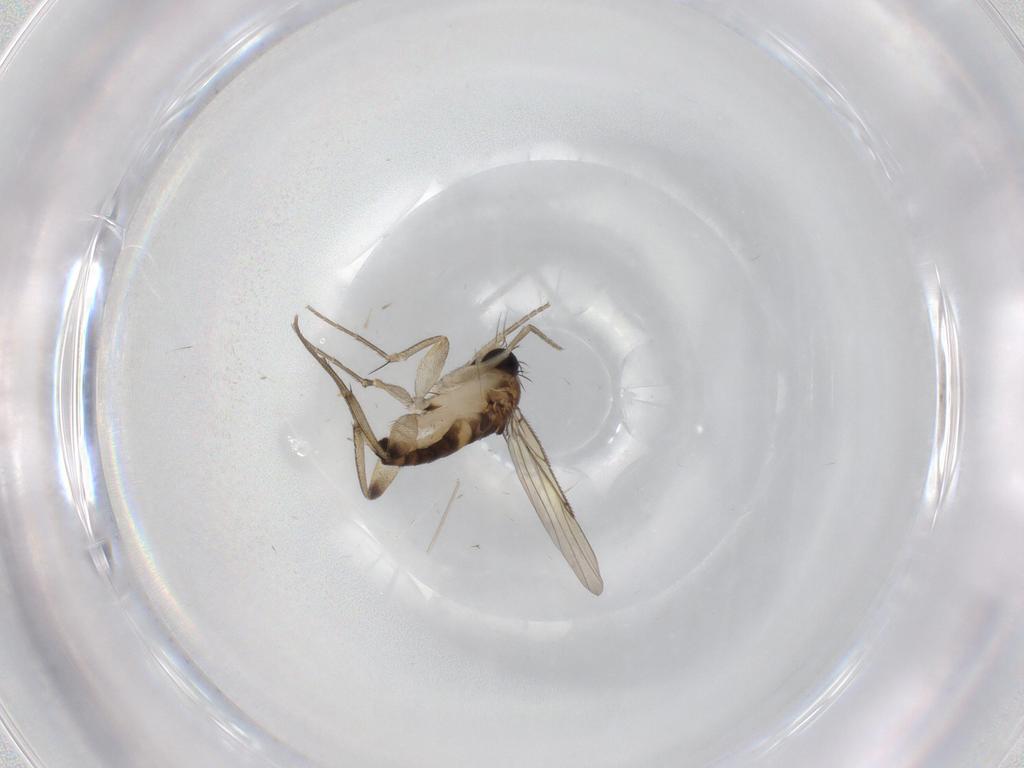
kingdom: Animalia
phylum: Arthropoda
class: Insecta
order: Diptera
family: Phoridae
